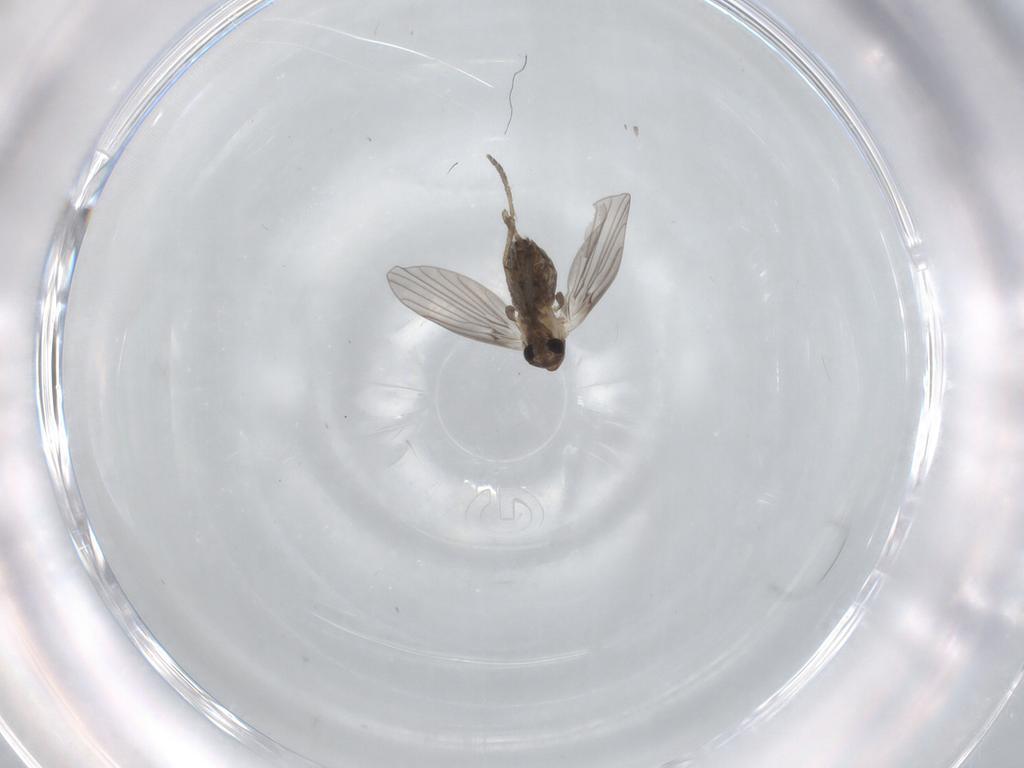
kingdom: Animalia
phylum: Arthropoda
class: Insecta
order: Diptera
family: Psychodidae
